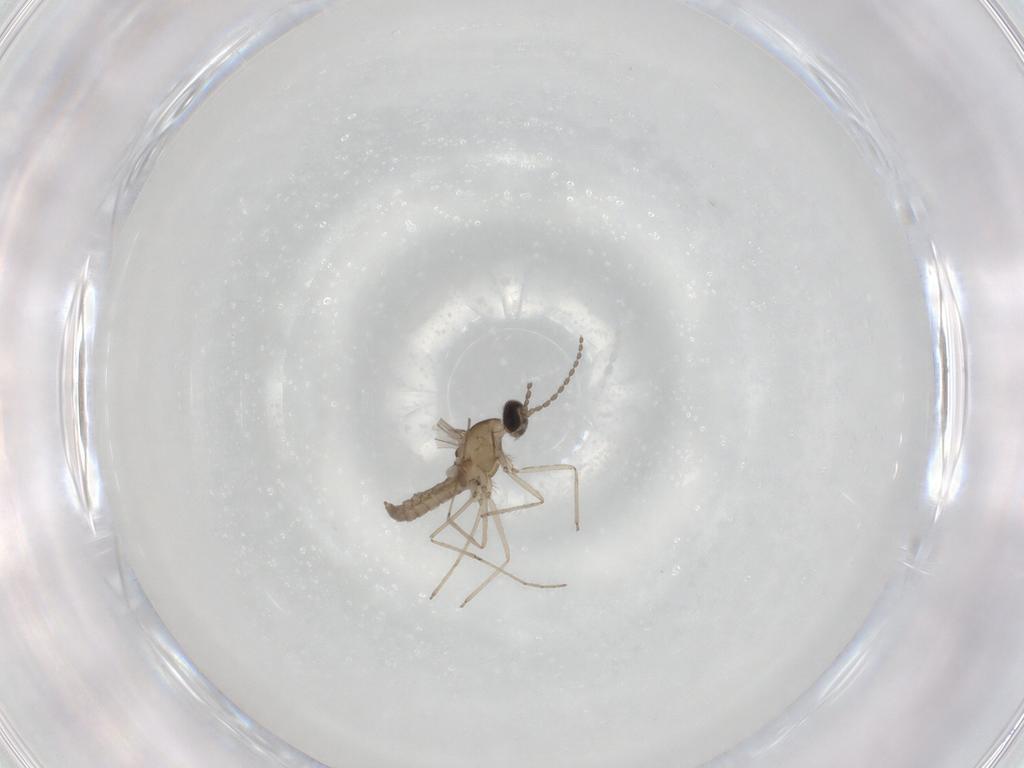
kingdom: Animalia
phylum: Arthropoda
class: Insecta
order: Diptera
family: Cecidomyiidae
